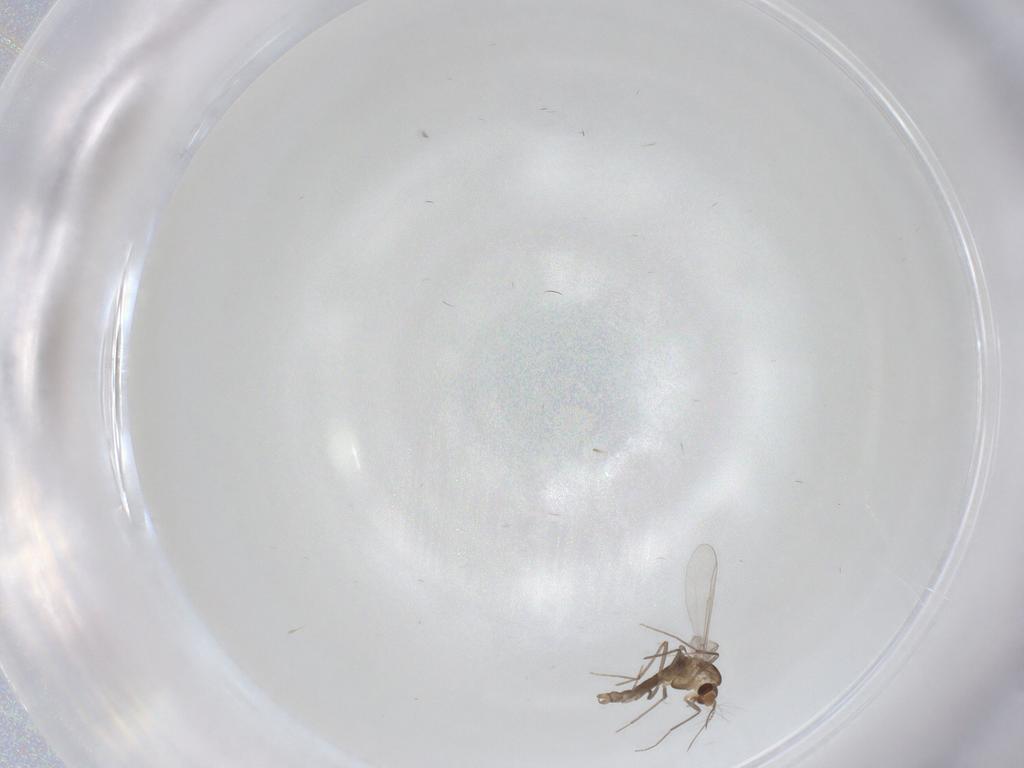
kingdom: Animalia
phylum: Arthropoda
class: Insecta
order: Diptera
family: Chironomidae
